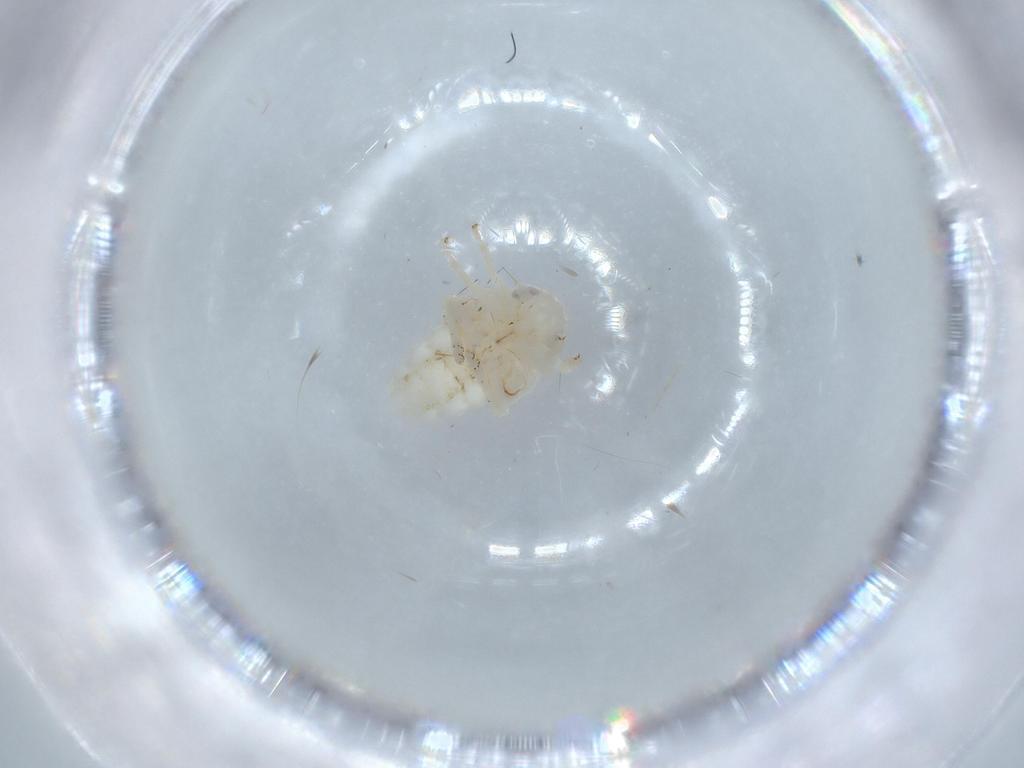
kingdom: Animalia
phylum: Arthropoda
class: Insecta
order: Hemiptera
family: Nogodinidae
